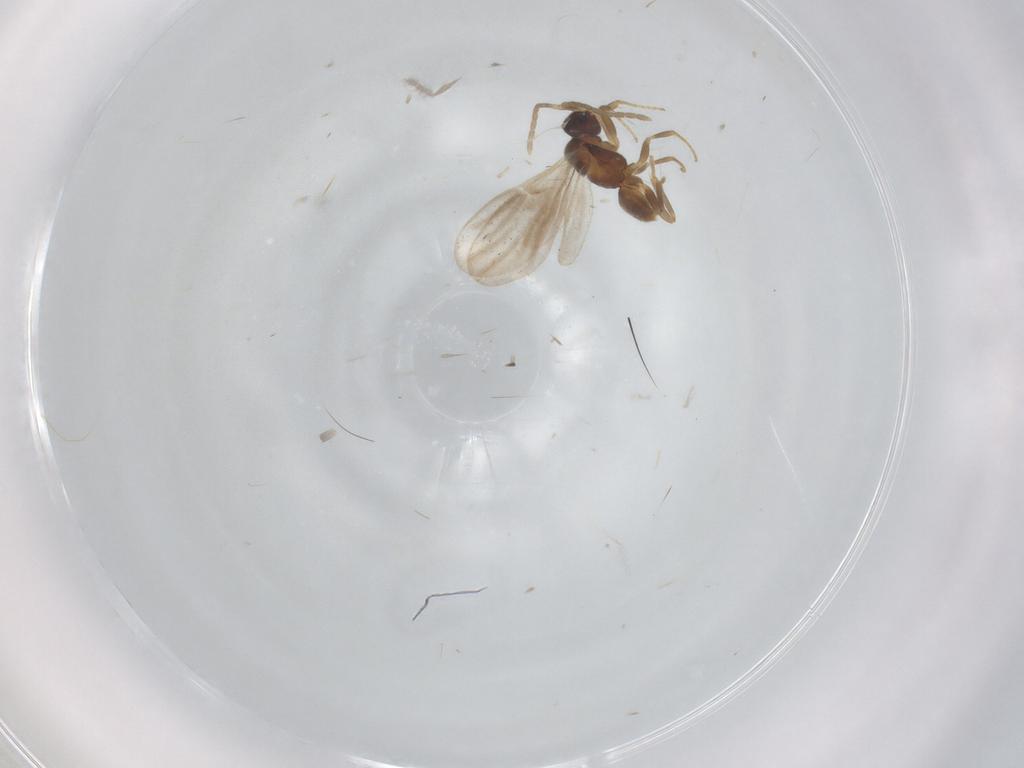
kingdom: Animalia
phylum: Arthropoda
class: Insecta
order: Hymenoptera
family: Dryinidae
